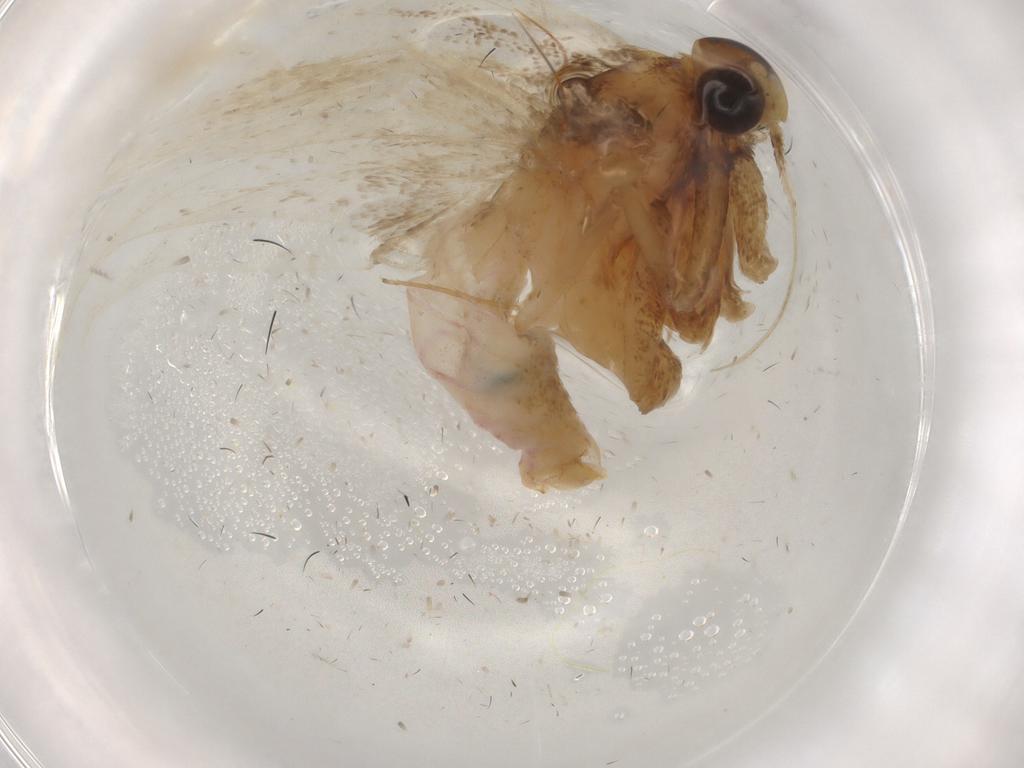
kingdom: Animalia
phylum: Arthropoda
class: Insecta
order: Lepidoptera
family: Lecithoceridae
